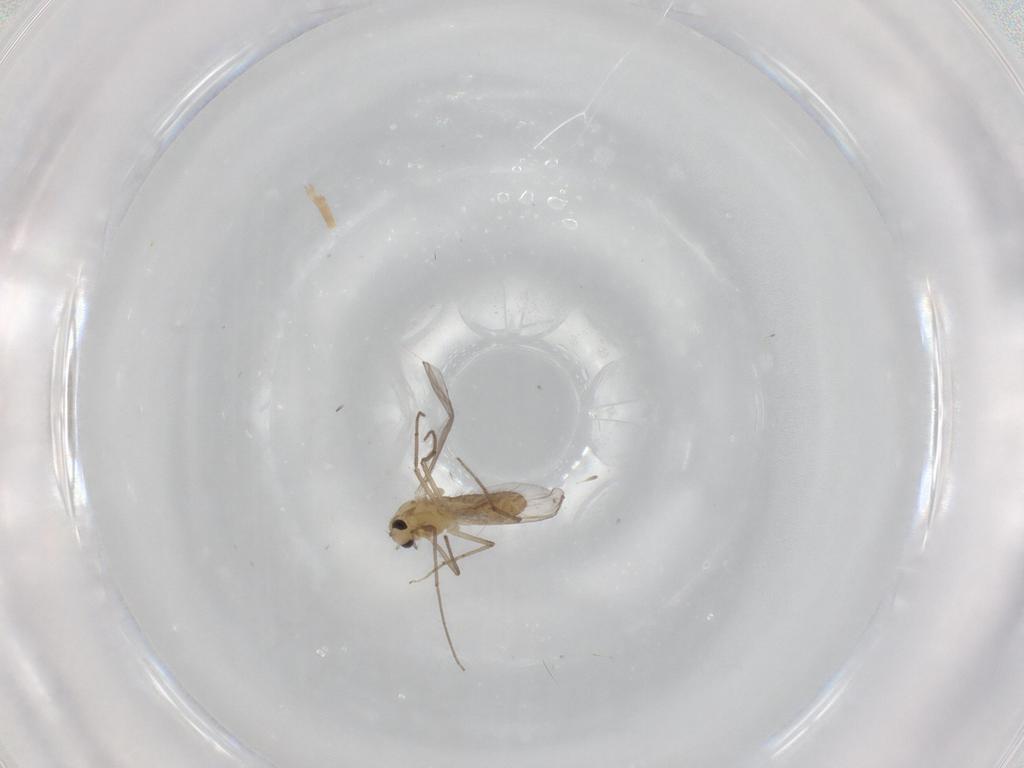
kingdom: Animalia
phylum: Arthropoda
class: Insecta
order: Diptera
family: Chironomidae
